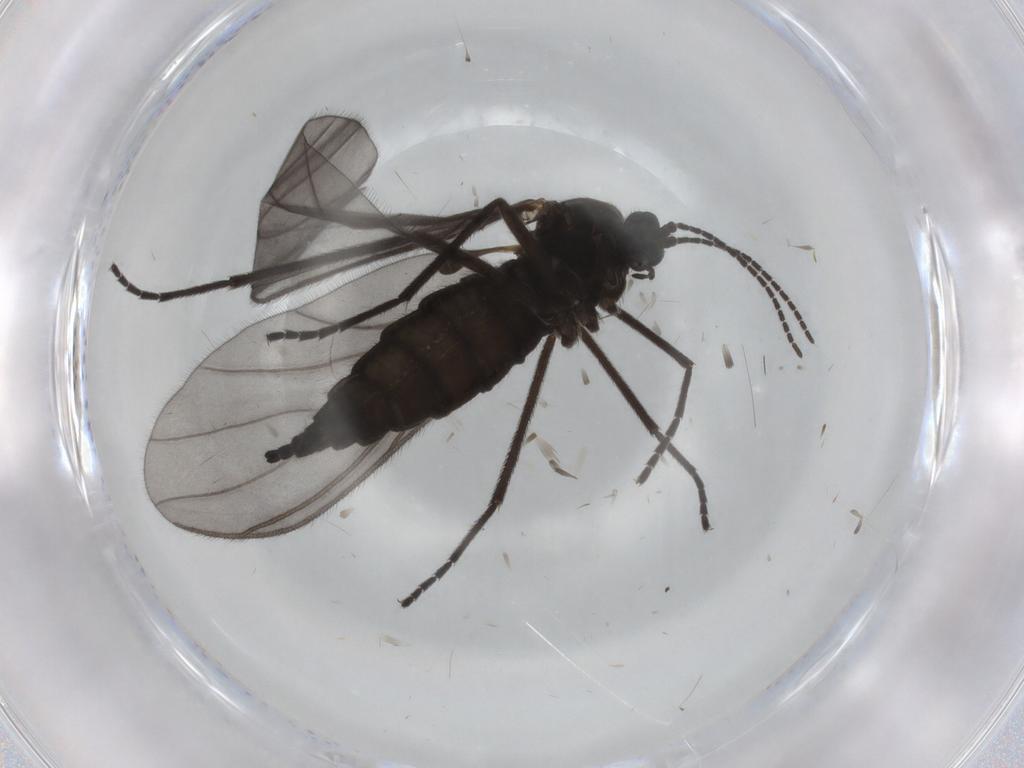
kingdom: Animalia
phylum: Arthropoda
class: Insecta
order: Diptera
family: Sciaridae
